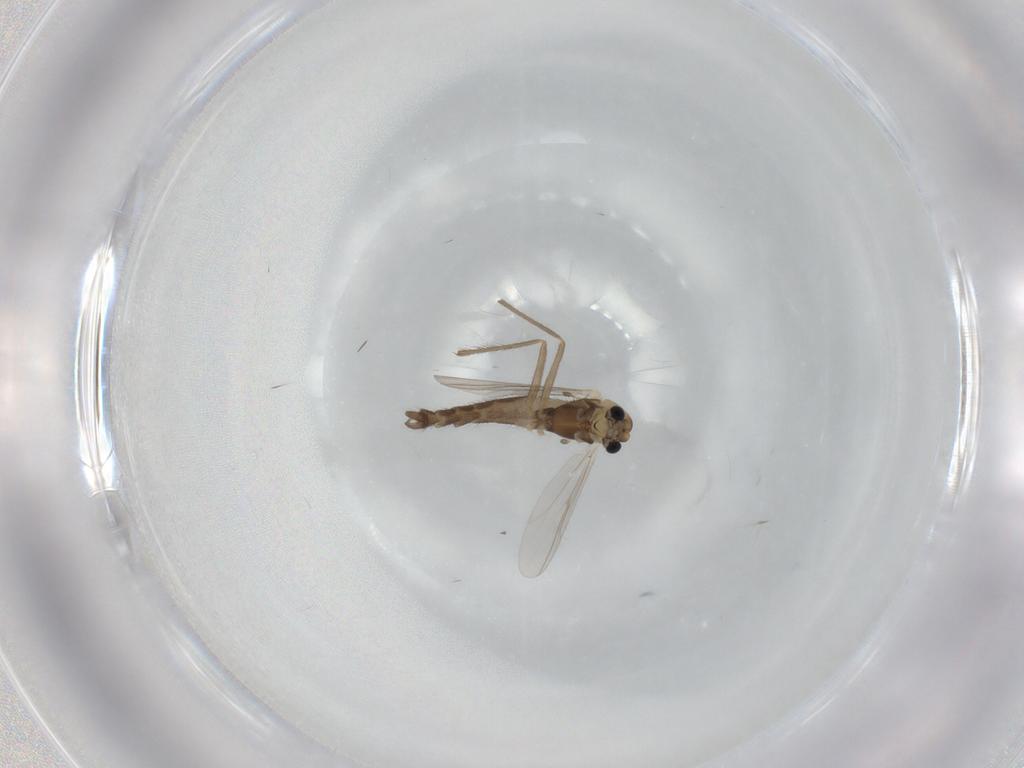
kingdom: Animalia
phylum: Arthropoda
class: Insecta
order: Diptera
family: Chironomidae
